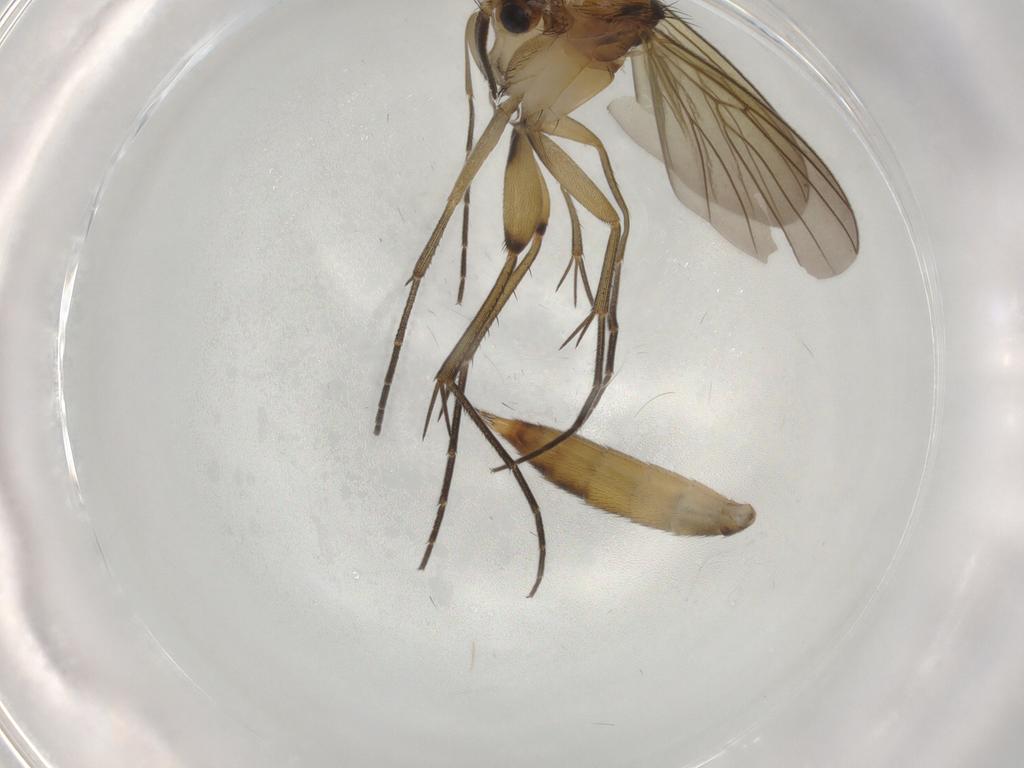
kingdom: Animalia
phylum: Arthropoda
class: Insecta
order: Diptera
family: Mycetophilidae
